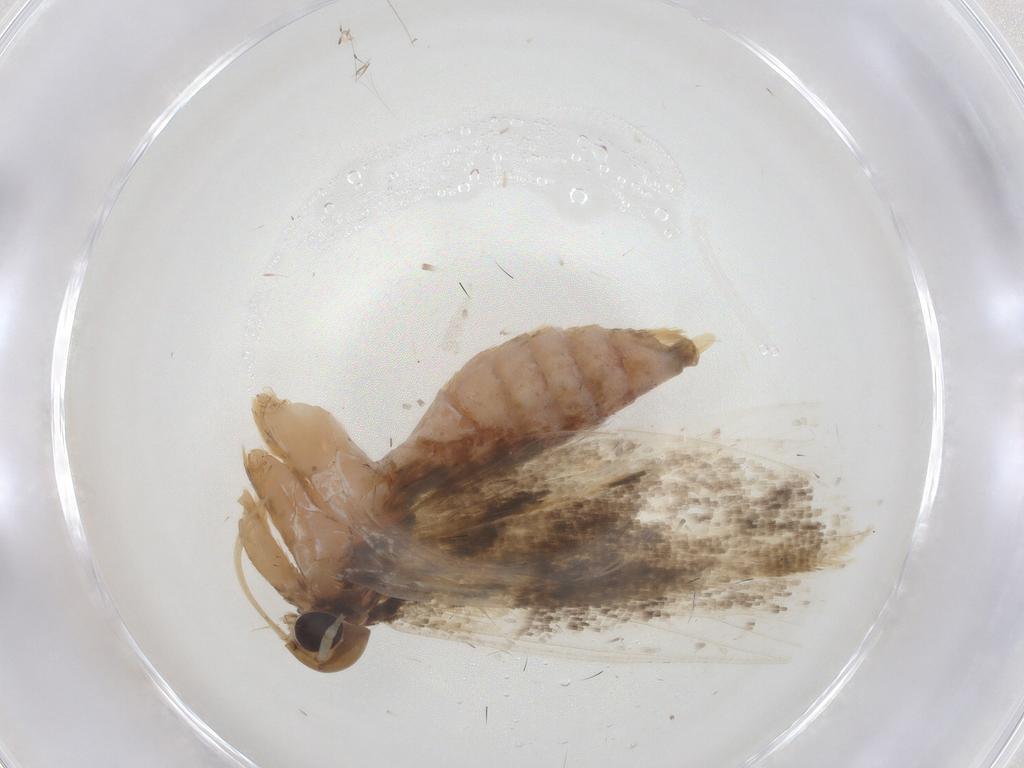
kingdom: Animalia
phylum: Arthropoda
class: Insecta
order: Lepidoptera
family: Gelechiidae
